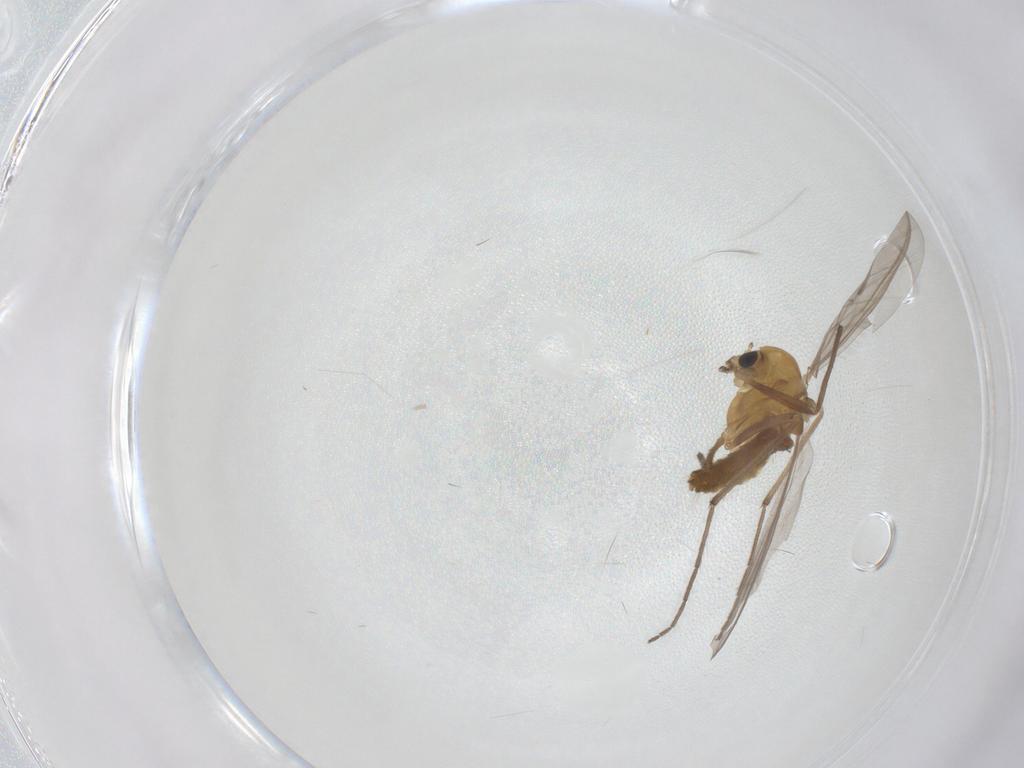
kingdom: Animalia
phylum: Arthropoda
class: Insecta
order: Diptera
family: Chironomidae
